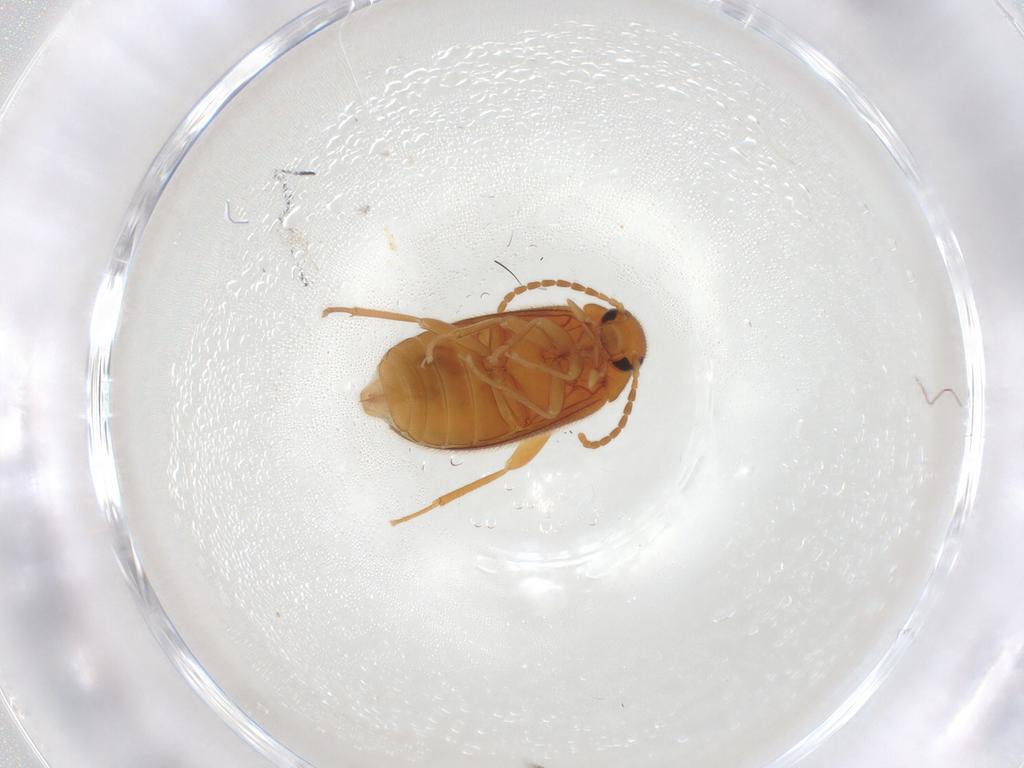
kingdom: Animalia
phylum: Arthropoda
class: Insecta
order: Coleoptera
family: Scraptiidae
